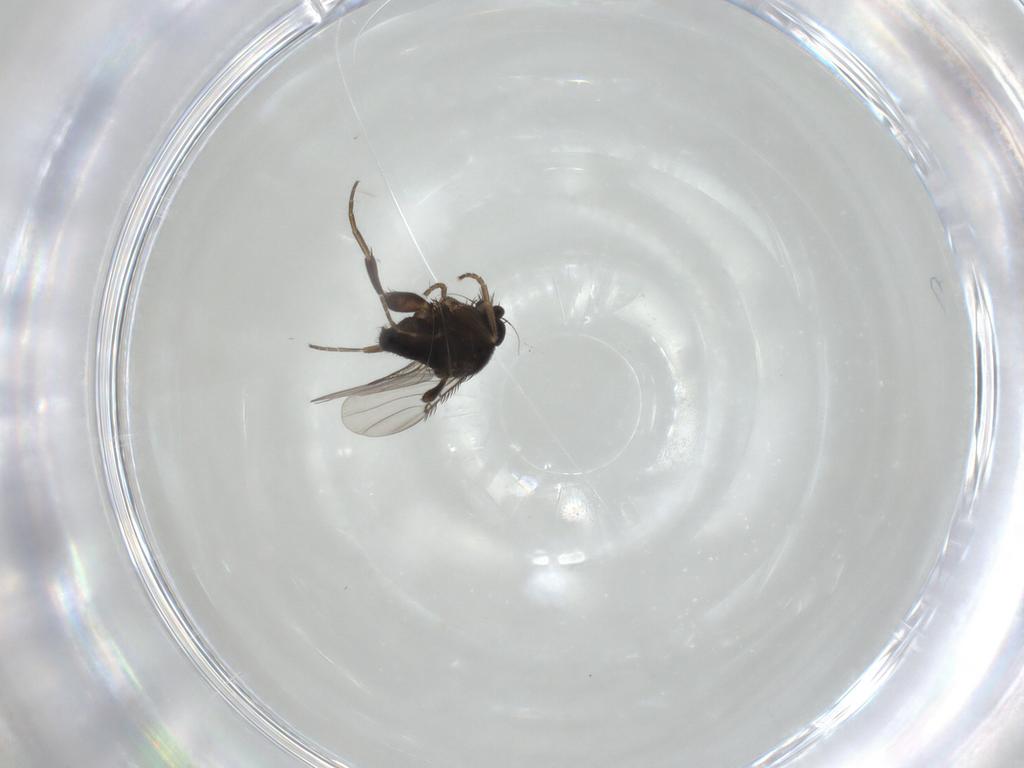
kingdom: Animalia
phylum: Arthropoda
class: Insecta
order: Diptera
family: Phoridae
